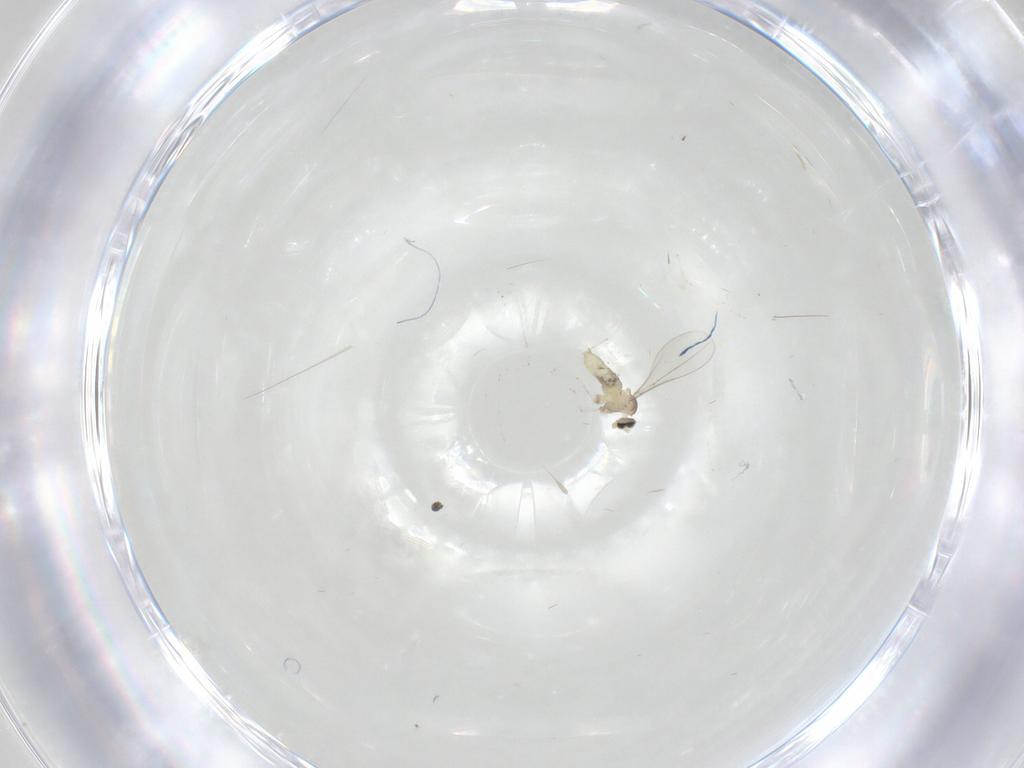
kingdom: Animalia
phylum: Arthropoda
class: Insecta
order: Diptera
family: Cecidomyiidae
